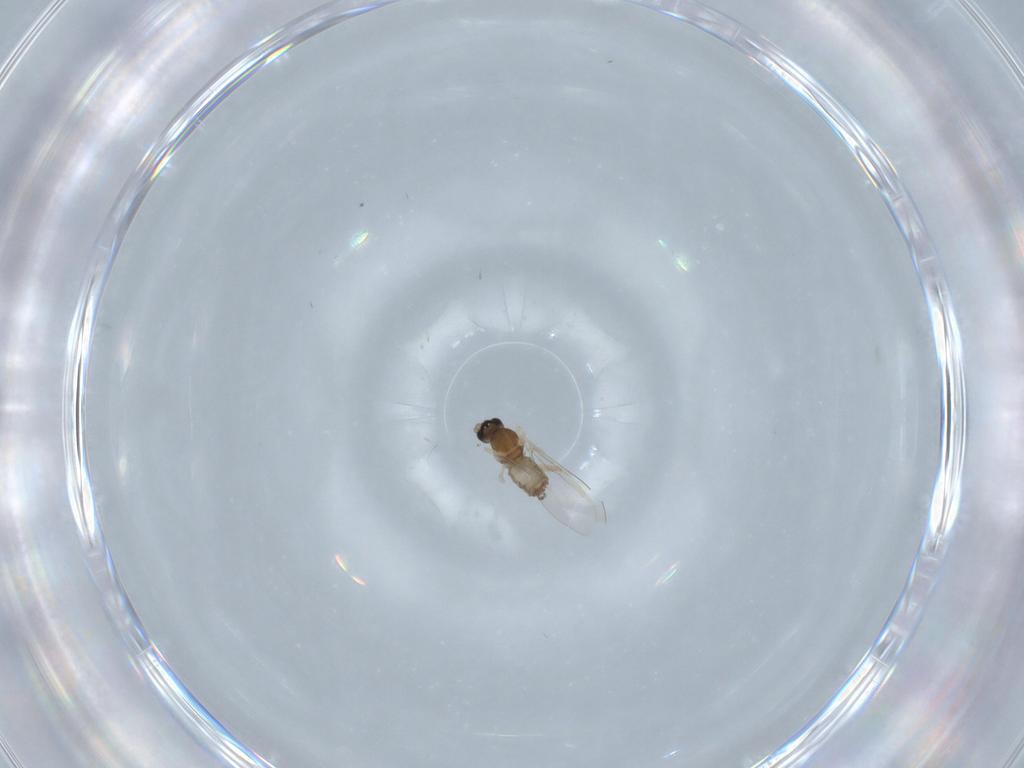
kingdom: Animalia
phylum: Arthropoda
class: Insecta
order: Diptera
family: Cecidomyiidae
